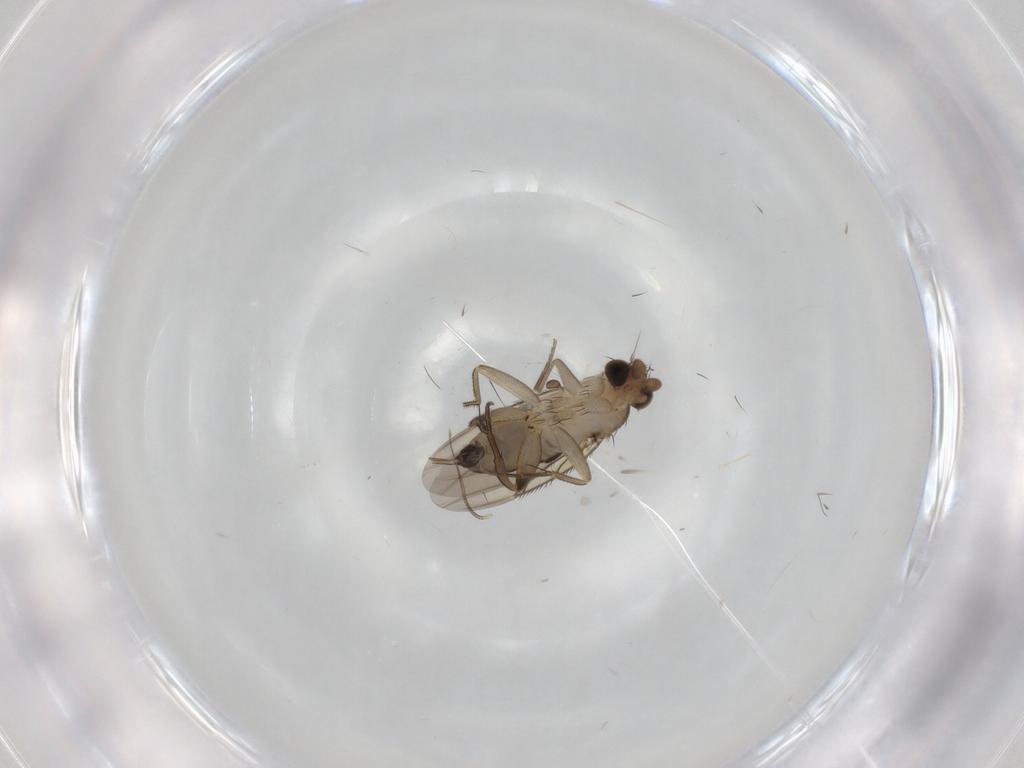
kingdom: Animalia
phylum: Arthropoda
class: Insecta
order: Diptera
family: Phoridae
